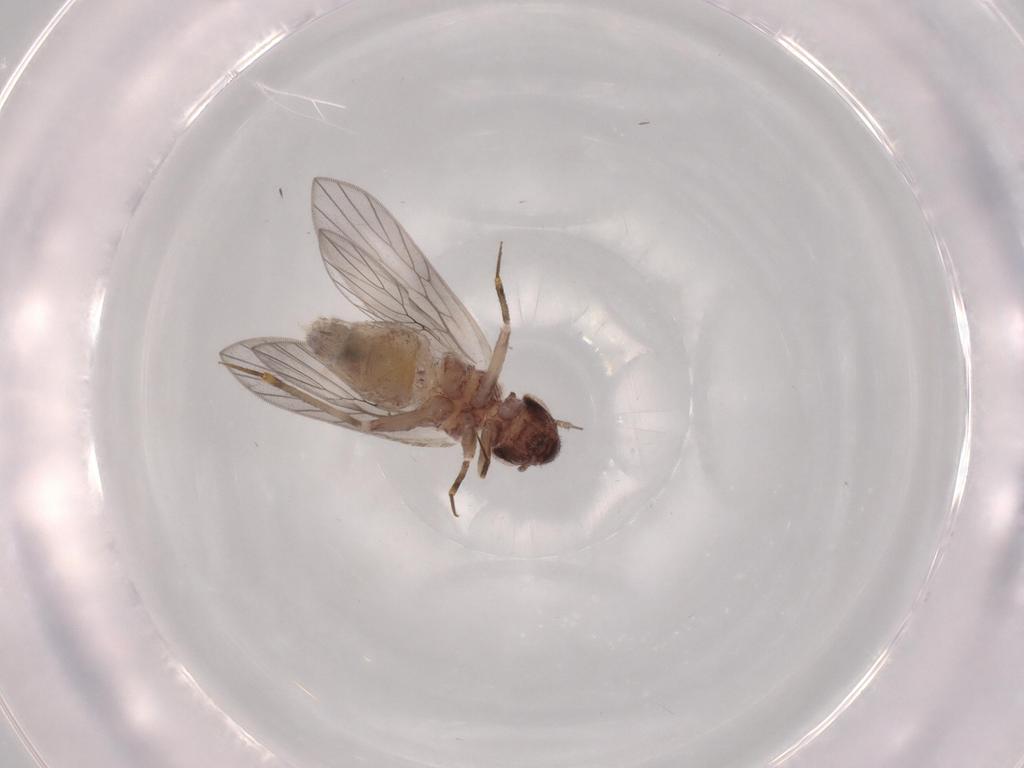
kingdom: Animalia
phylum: Arthropoda
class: Insecta
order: Psocodea
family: Lepidopsocidae
